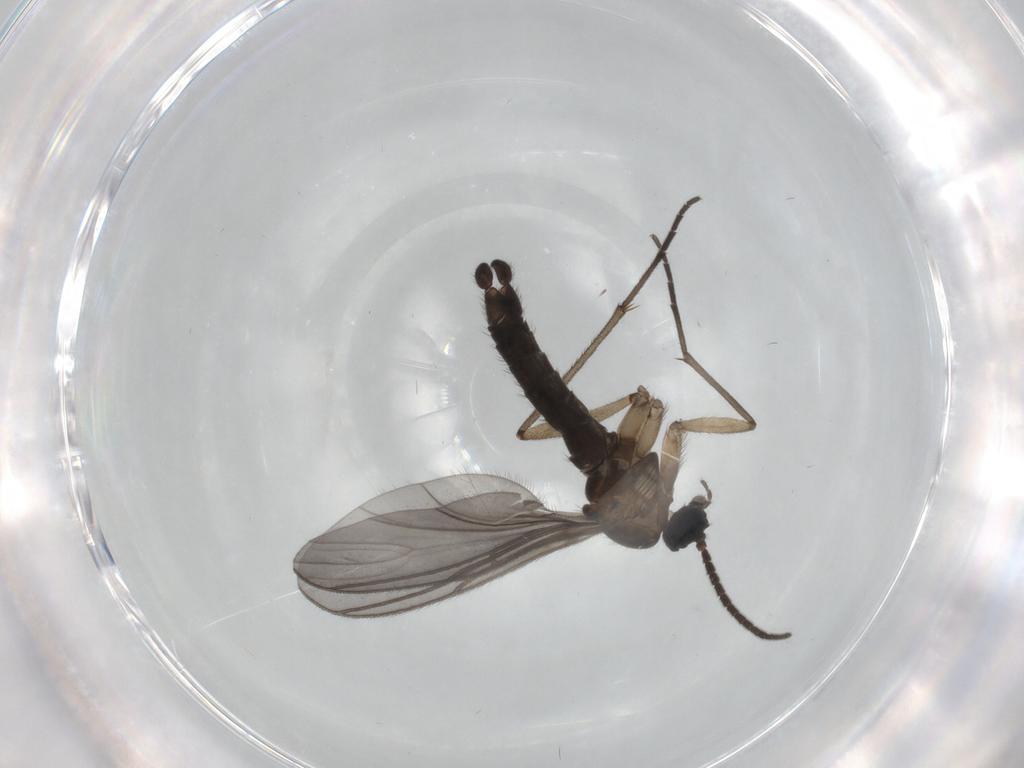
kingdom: Animalia
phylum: Arthropoda
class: Insecta
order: Diptera
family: Sciaridae
